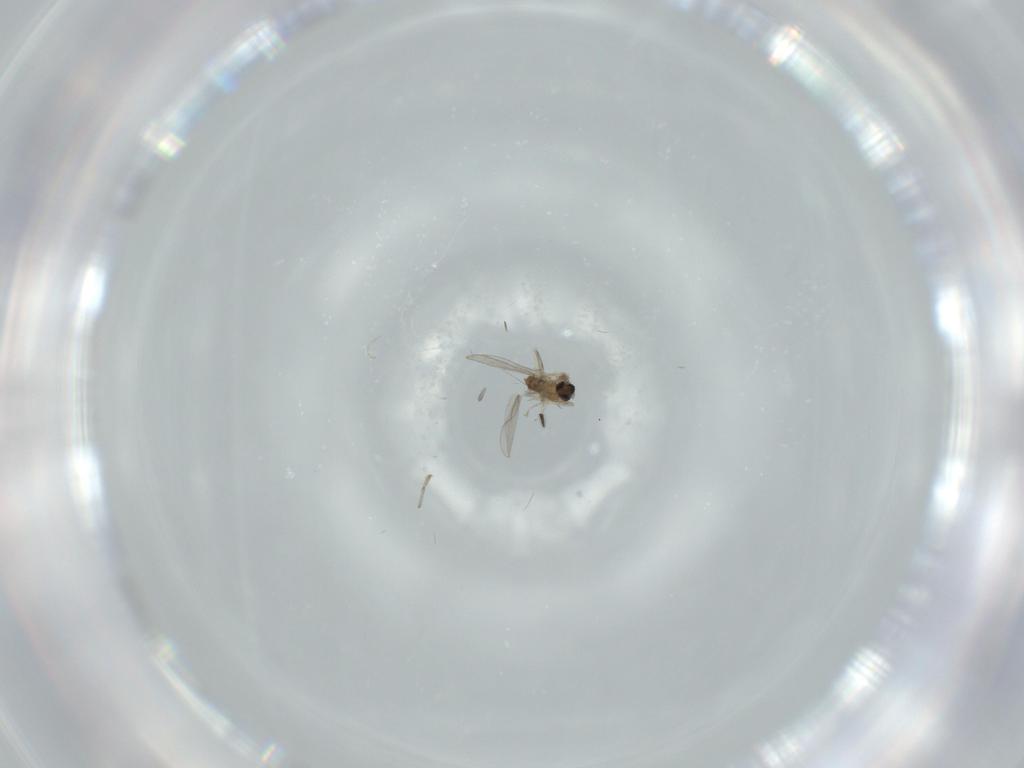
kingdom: Animalia
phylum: Arthropoda
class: Insecta
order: Diptera
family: Cecidomyiidae
